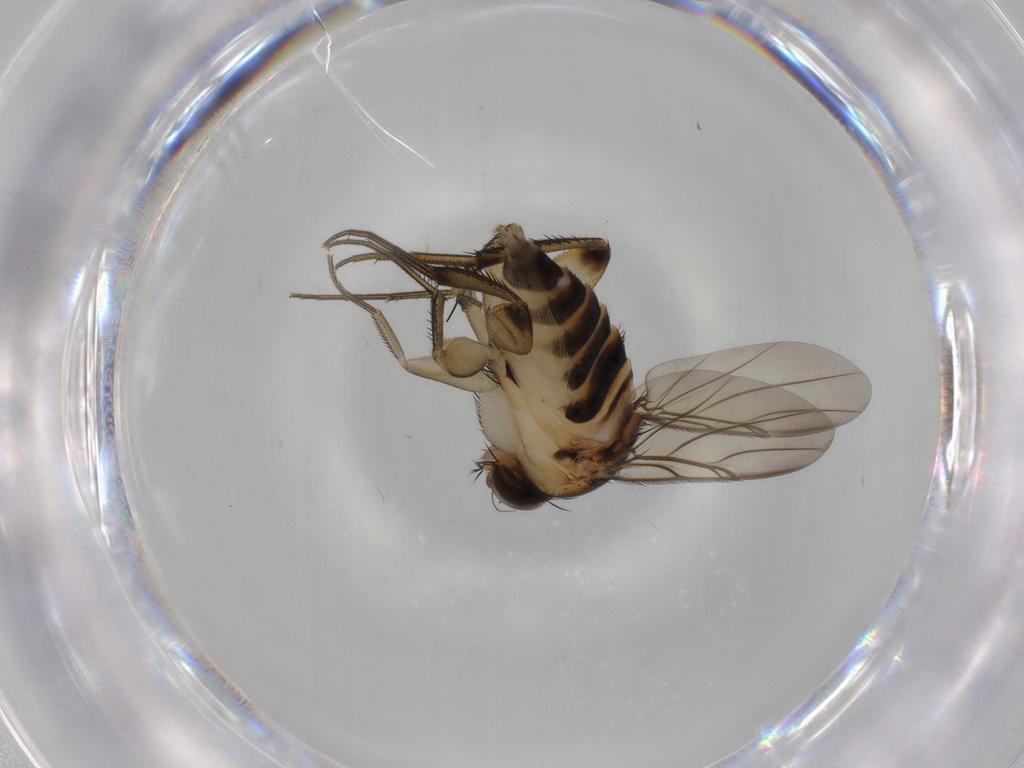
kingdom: Animalia
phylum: Arthropoda
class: Insecta
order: Diptera
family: Phoridae
